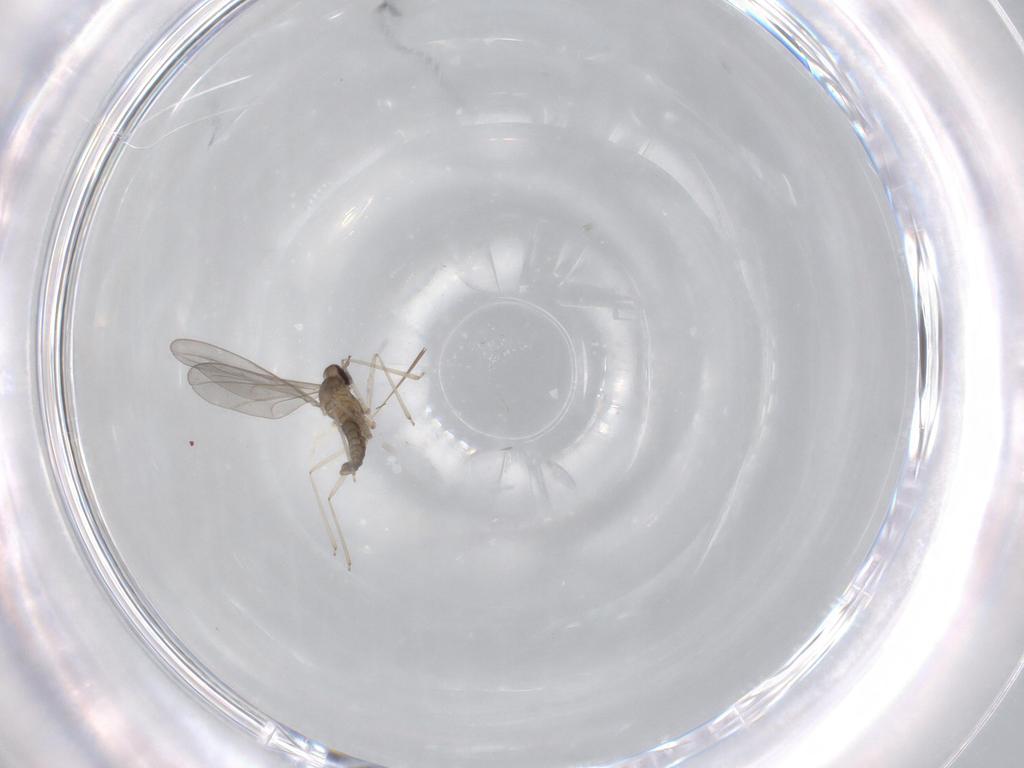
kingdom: Animalia
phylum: Arthropoda
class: Insecta
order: Diptera
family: Cecidomyiidae
